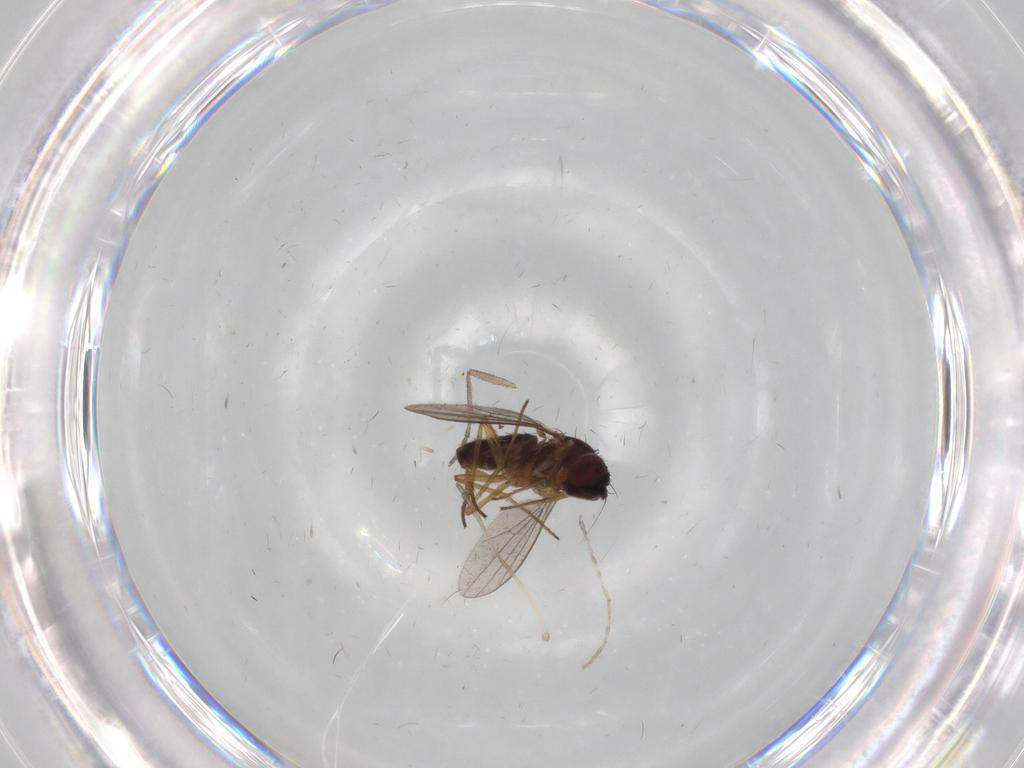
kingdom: Animalia
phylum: Arthropoda
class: Insecta
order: Diptera
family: Dolichopodidae
